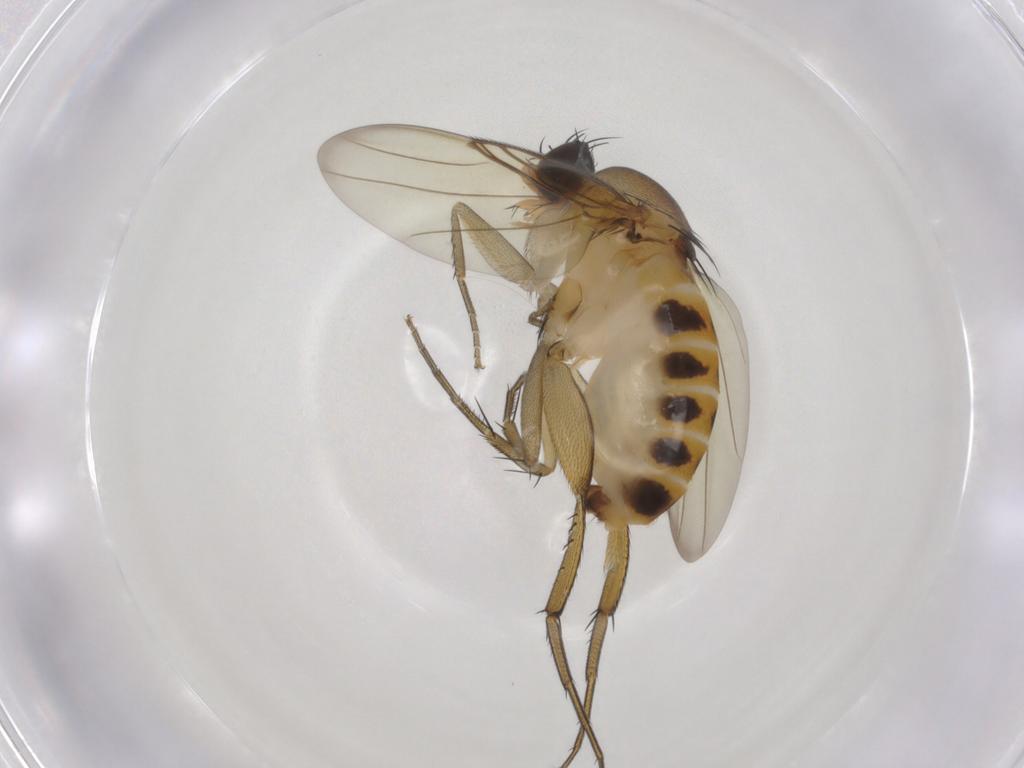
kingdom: Animalia
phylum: Arthropoda
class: Insecta
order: Diptera
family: Phoridae
